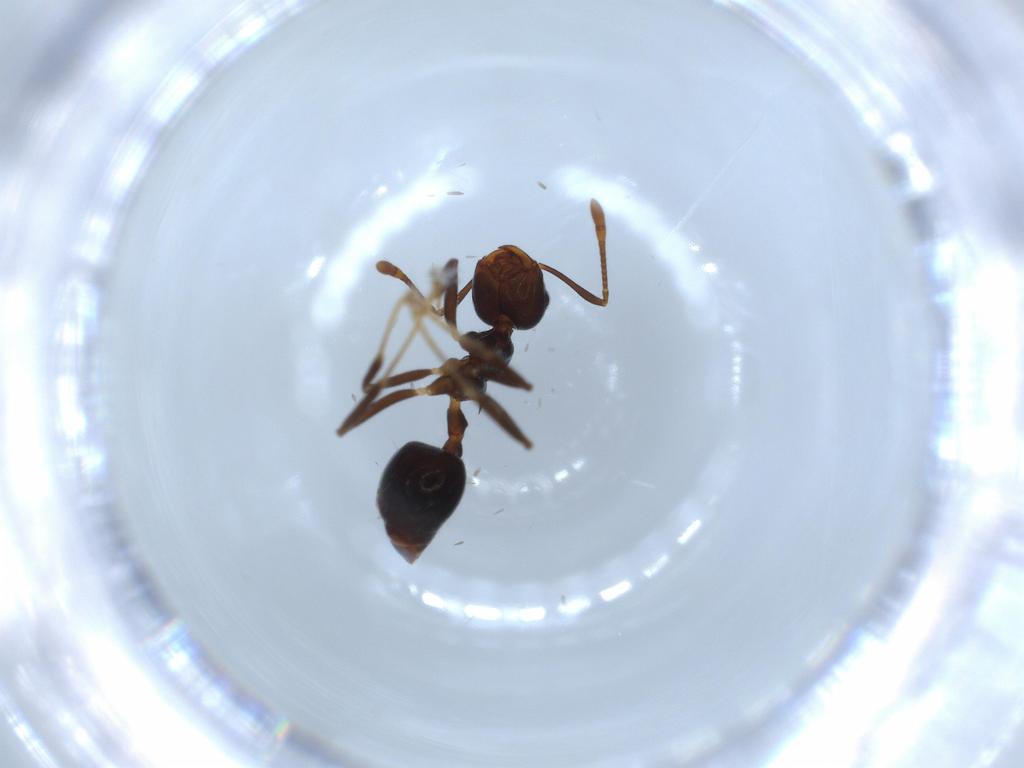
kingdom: Animalia
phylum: Arthropoda
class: Insecta
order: Hymenoptera
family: Formicidae
